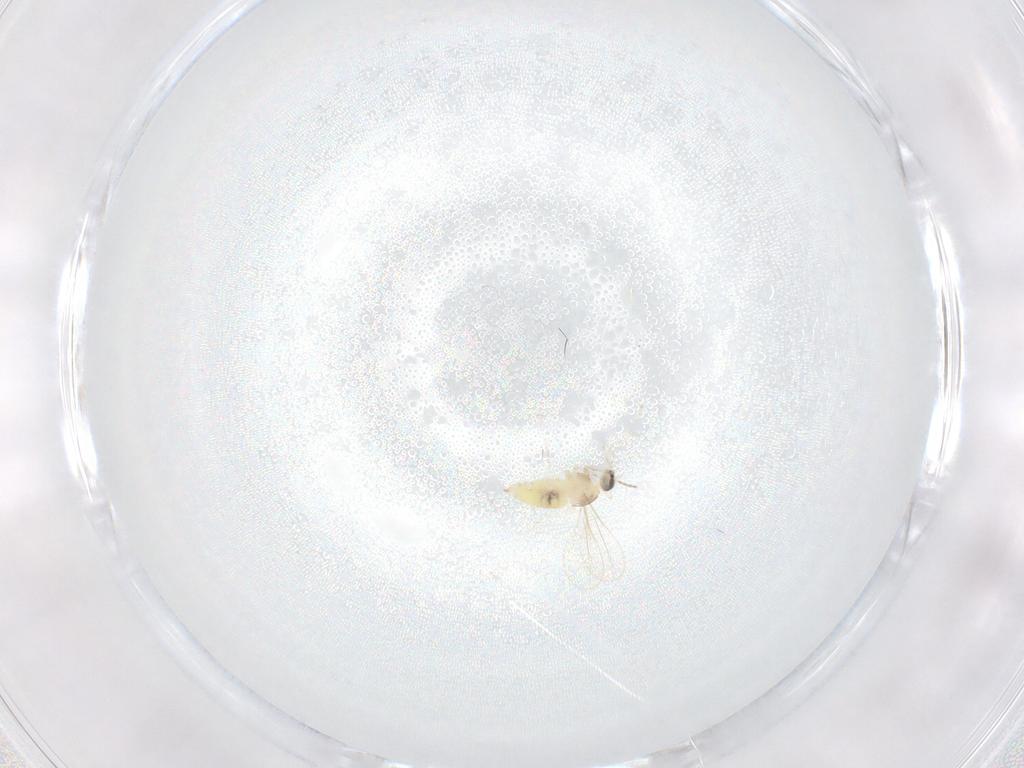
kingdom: Animalia
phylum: Arthropoda
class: Insecta
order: Diptera
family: Cecidomyiidae
